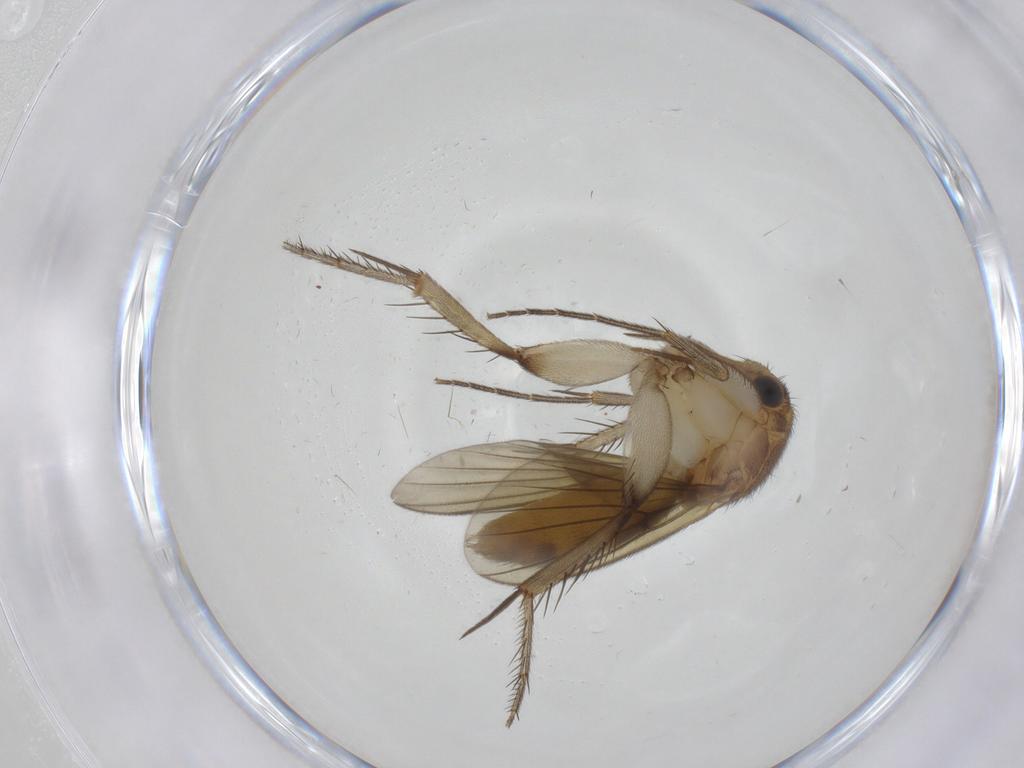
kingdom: Animalia
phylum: Arthropoda
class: Insecta
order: Diptera
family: Mycetophilidae
